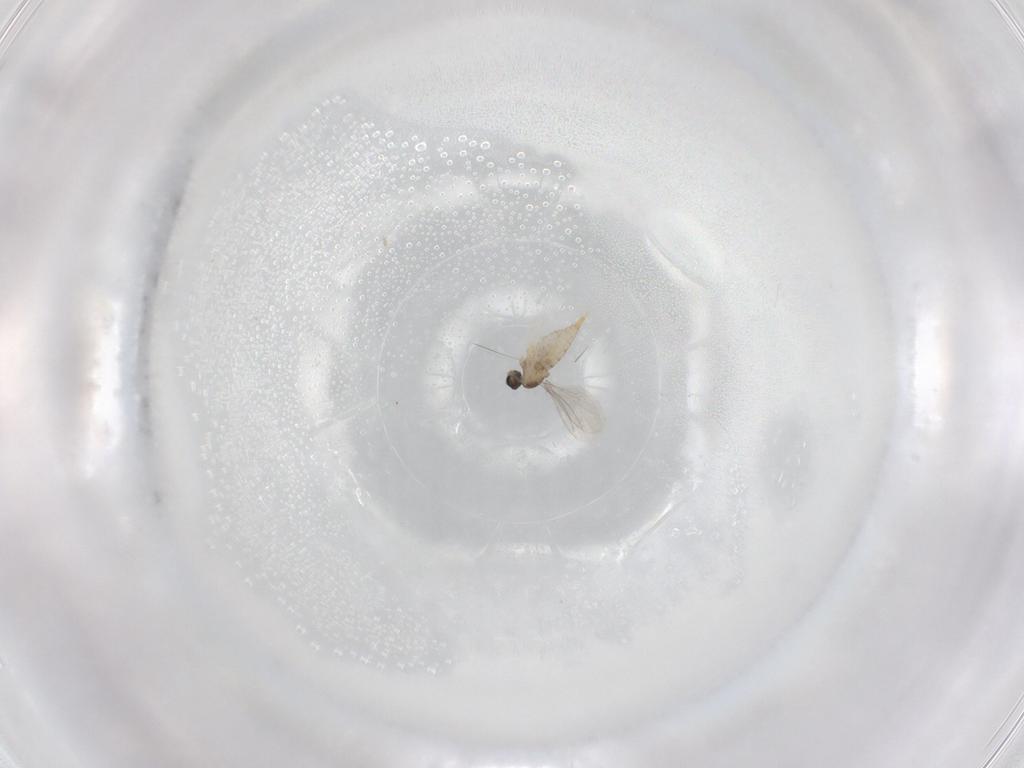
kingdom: Animalia
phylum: Arthropoda
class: Insecta
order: Diptera
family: Cecidomyiidae
